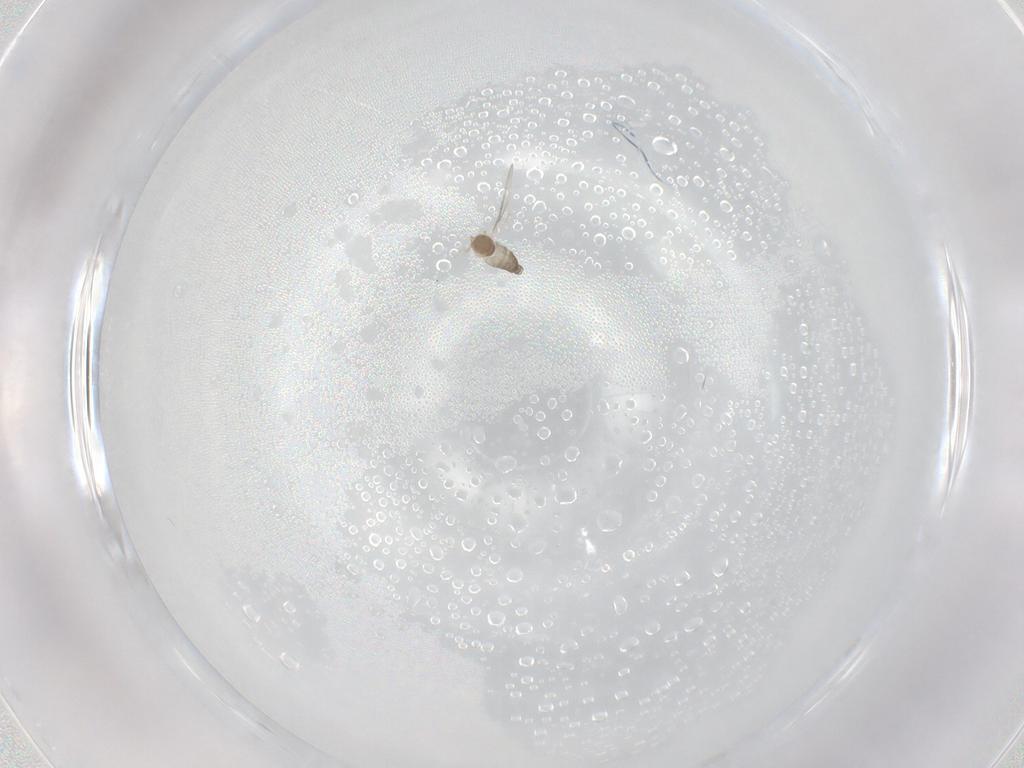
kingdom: Animalia
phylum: Arthropoda
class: Insecta
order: Diptera
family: Cecidomyiidae
